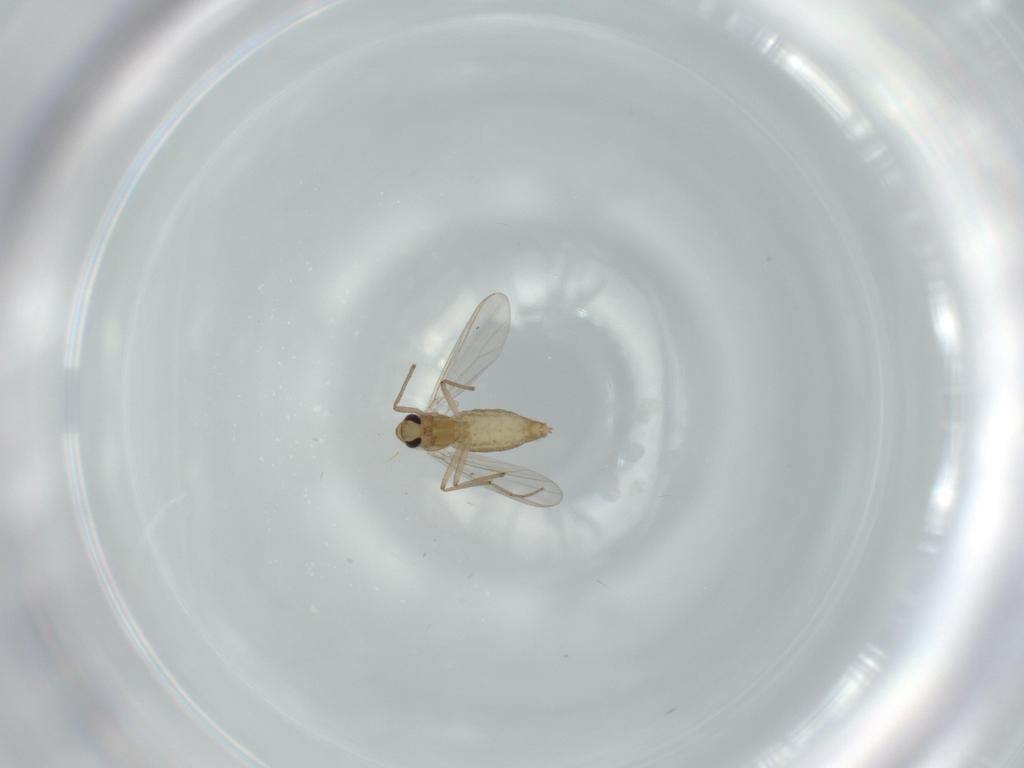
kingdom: Animalia
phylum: Arthropoda
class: Insecta
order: Diptera
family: Chironomidae
